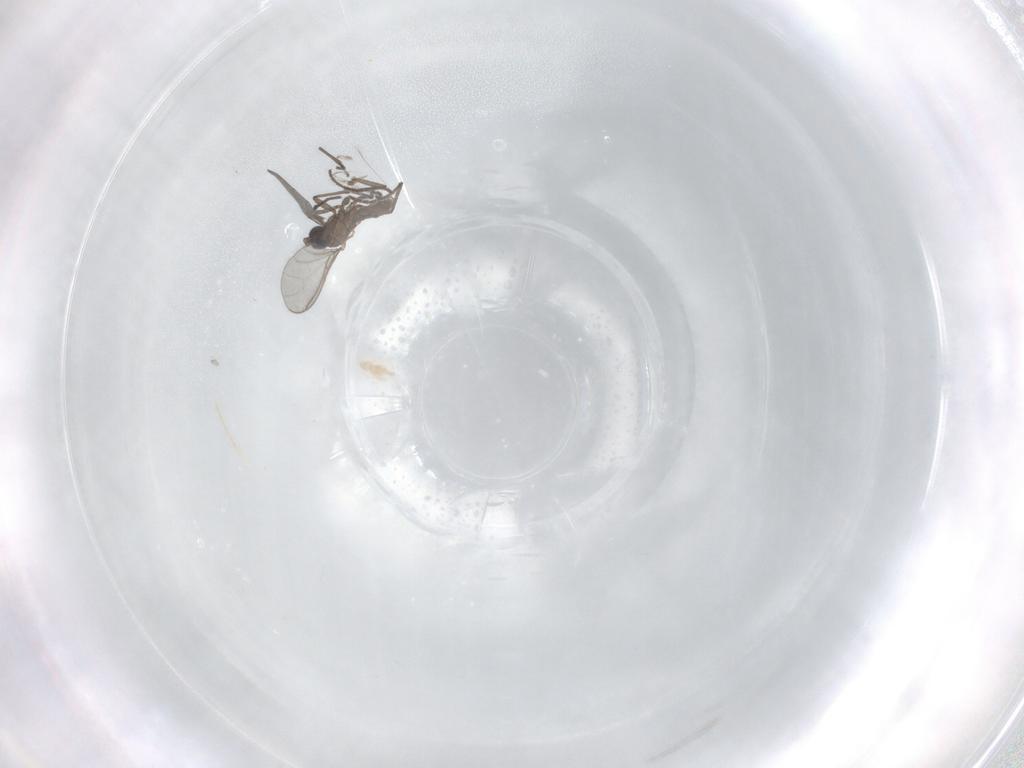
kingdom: Animalia
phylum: Arthropoda
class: Insecta
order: Diptera
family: Sciaridae
